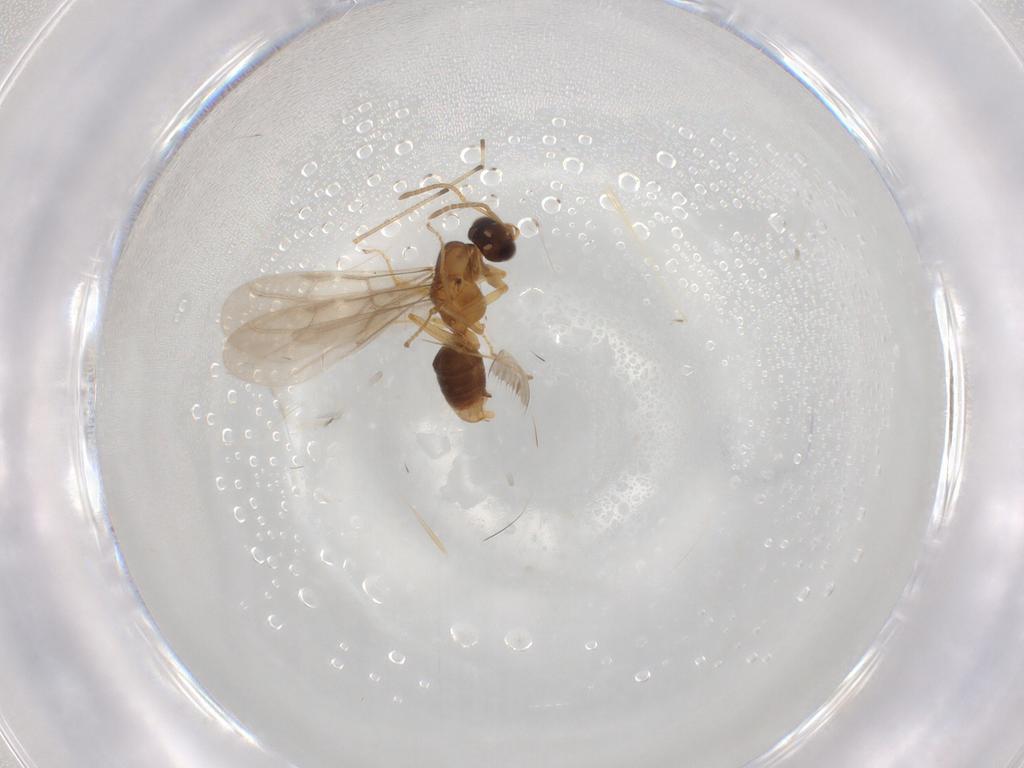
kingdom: Animalia
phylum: Arthropoda
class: Insecta
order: Hymenoptera
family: Formicidae
